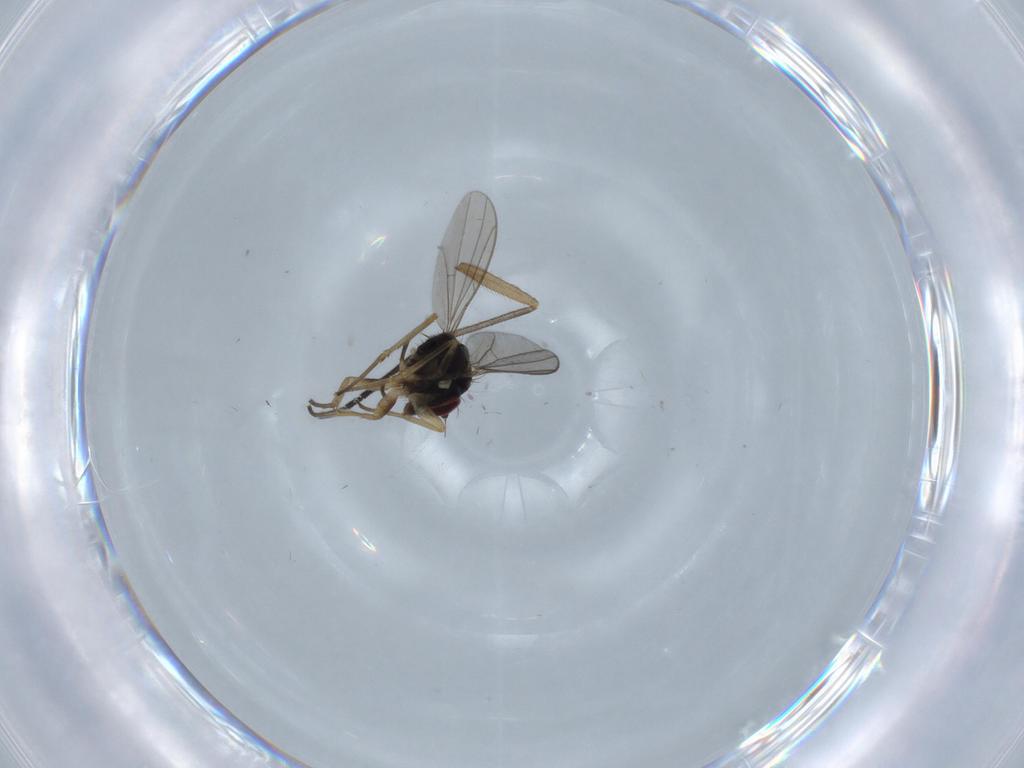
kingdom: Animalia
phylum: Arthropoda
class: Insecta
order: Diptera
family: Dolichopodidae
